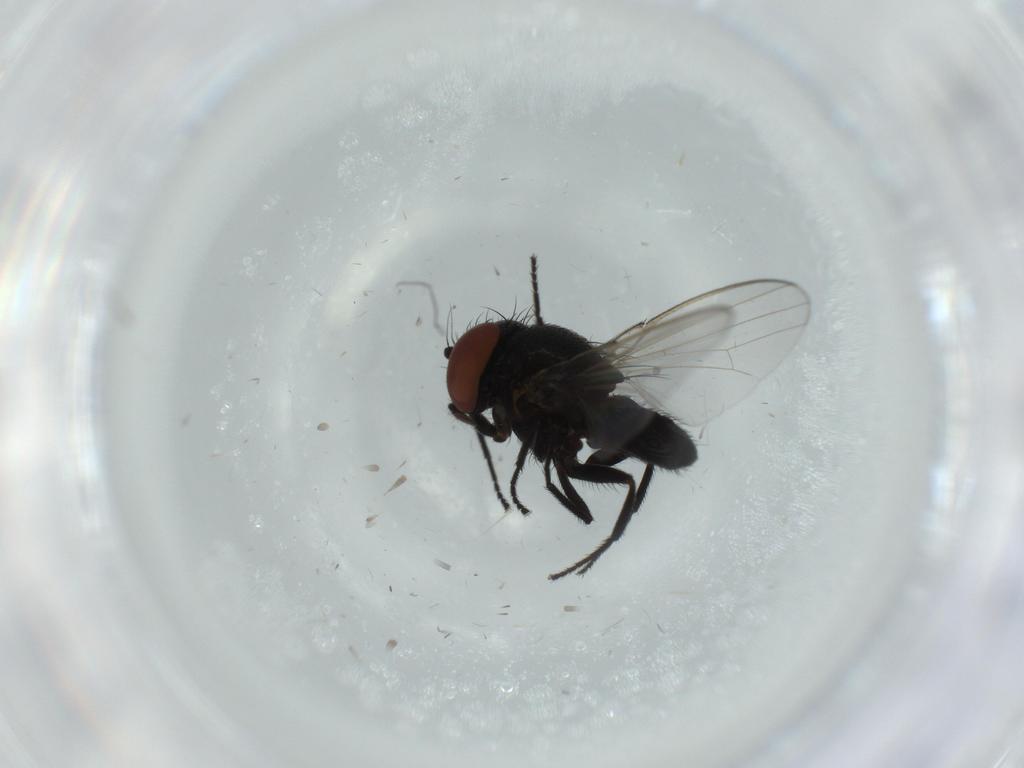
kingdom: Animalia
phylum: Arthropoda
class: Insecta
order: Diptera
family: Milichiidae
